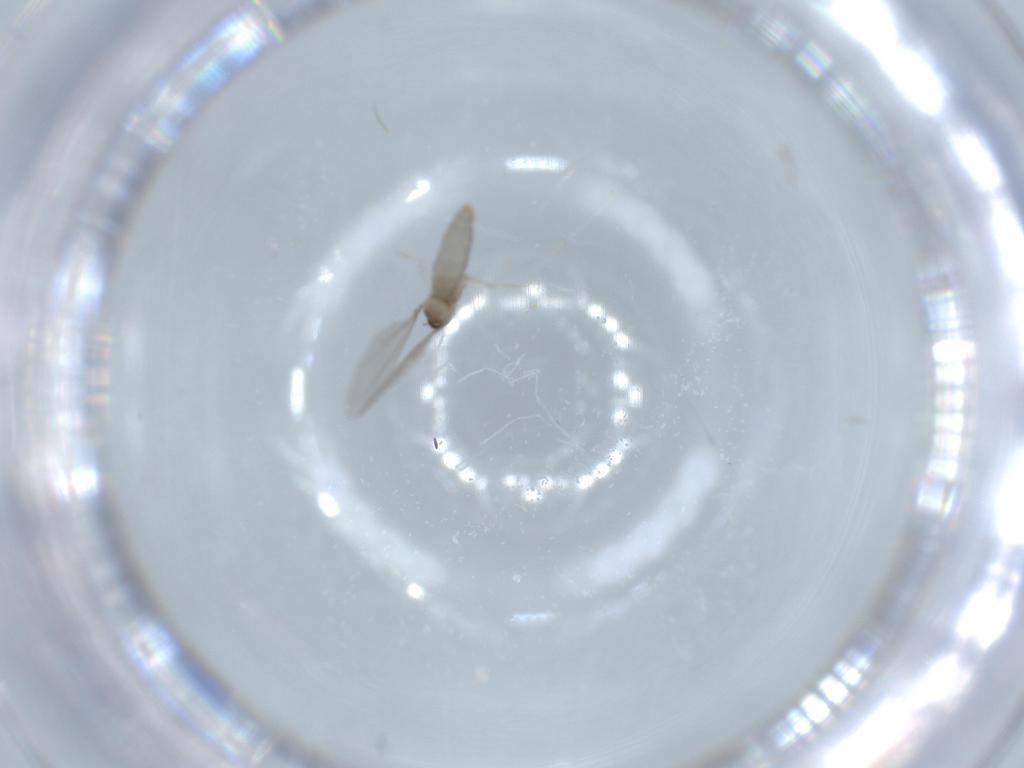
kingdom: Animalia
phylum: Arthropoda
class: Insecta
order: Diptera
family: Cecidomyiidae
